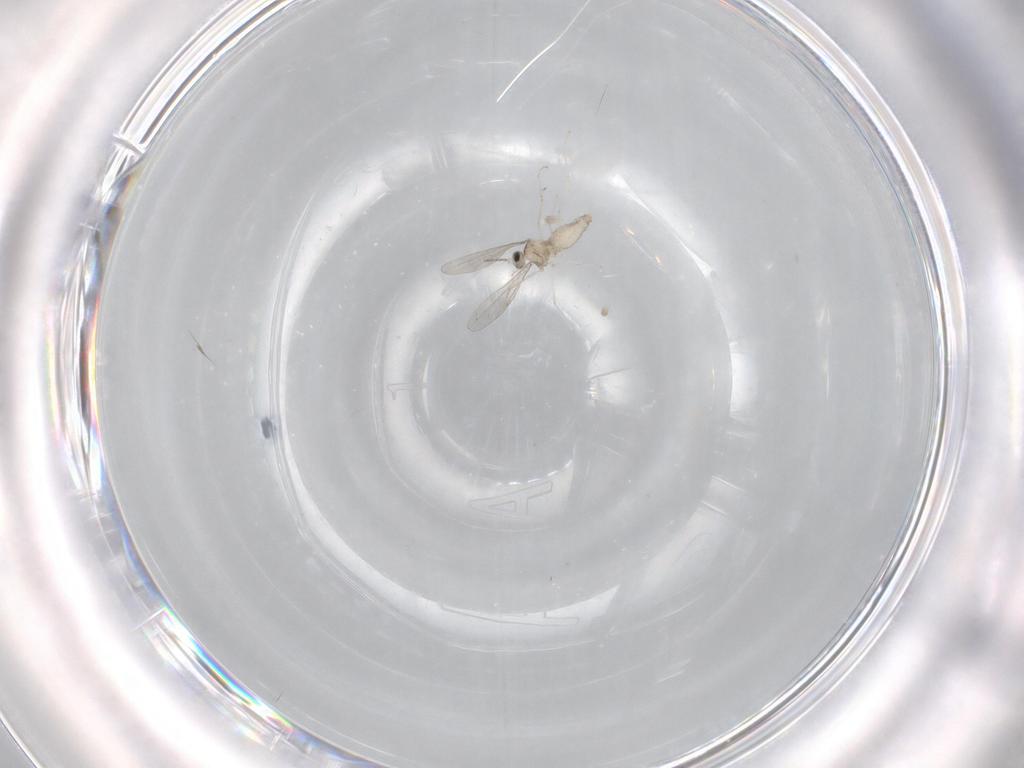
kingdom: Animalia
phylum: Arthropoda
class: Insecta
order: Diptera
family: Cecidomyiidae
